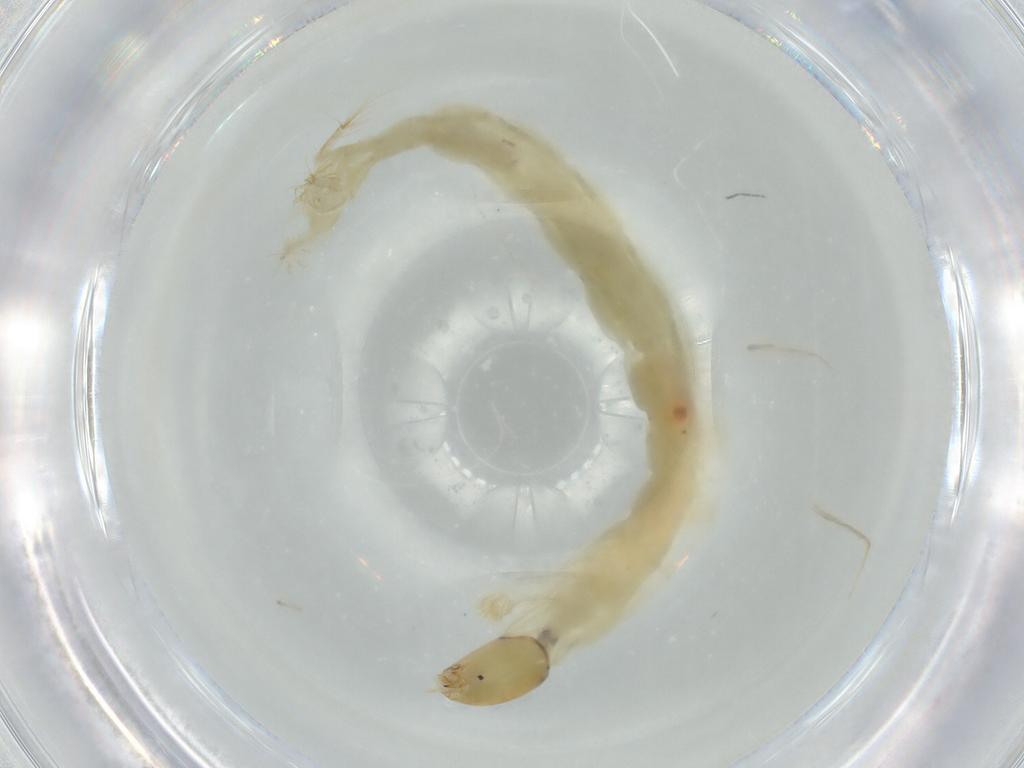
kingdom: Animalia
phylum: Arthropoda
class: Insecta
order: Diptera
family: Chironomidae
